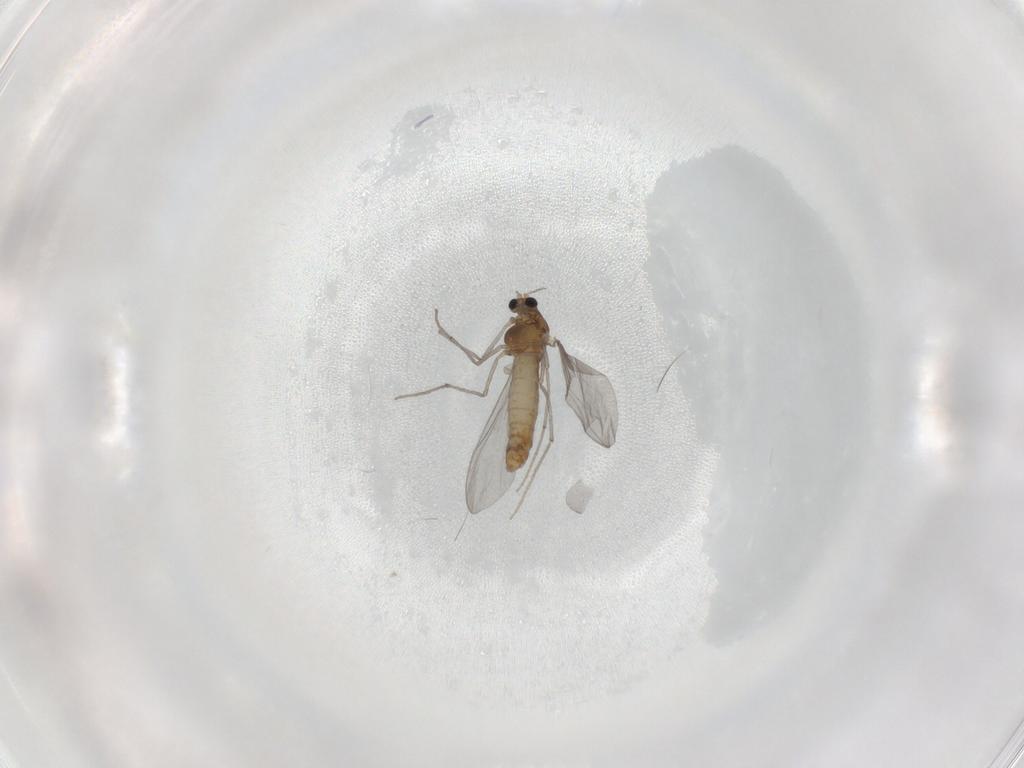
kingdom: Animalia
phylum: Arthropoda
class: Insecta
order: Diptera
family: Chironomidae
